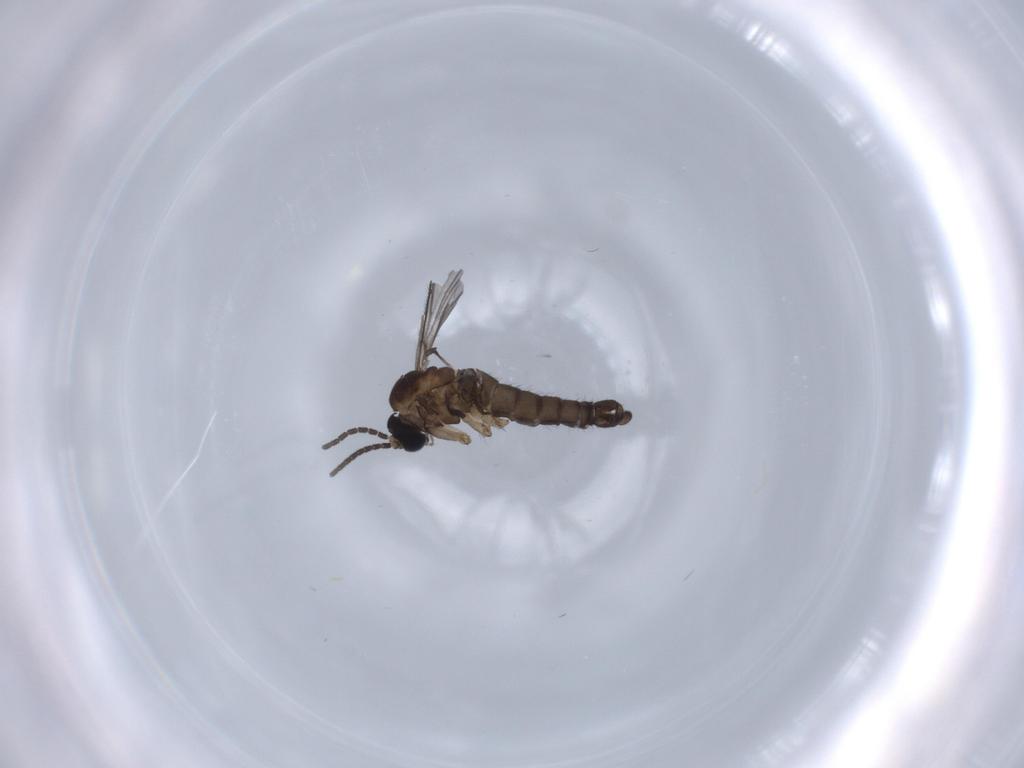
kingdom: Animalia
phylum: Arthropoda
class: Insecta
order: Diptera
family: Sciaridae
